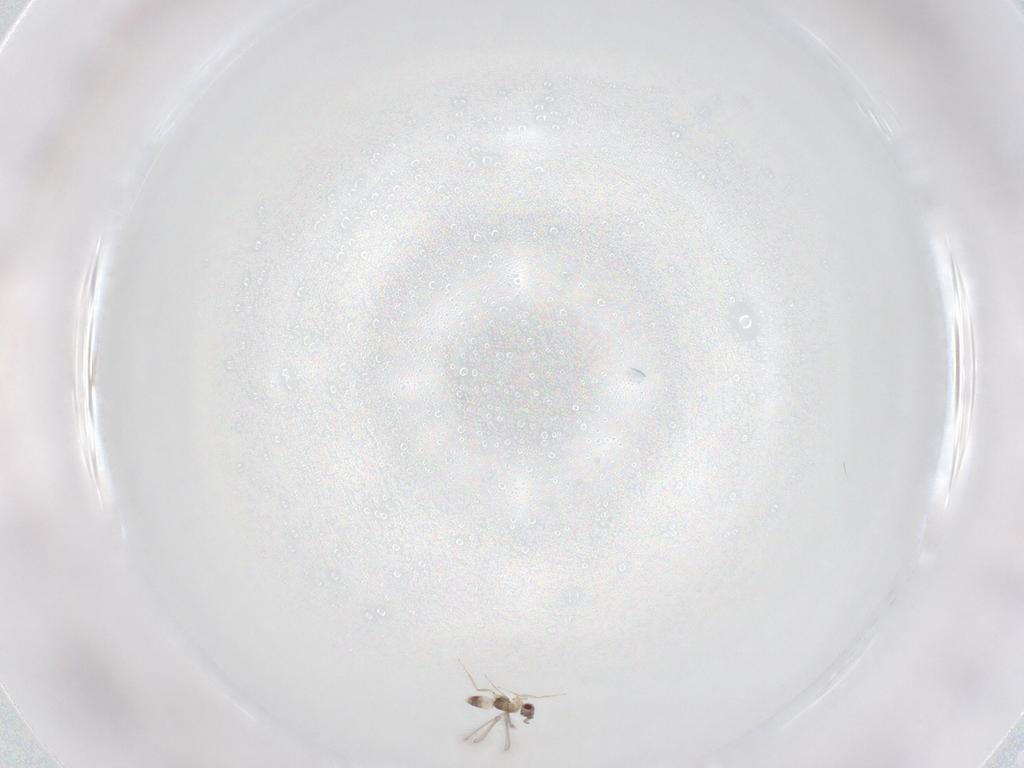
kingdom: Animalia
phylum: Arthropoda
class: Insecta
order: Hymenoptera
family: Mymaridae
